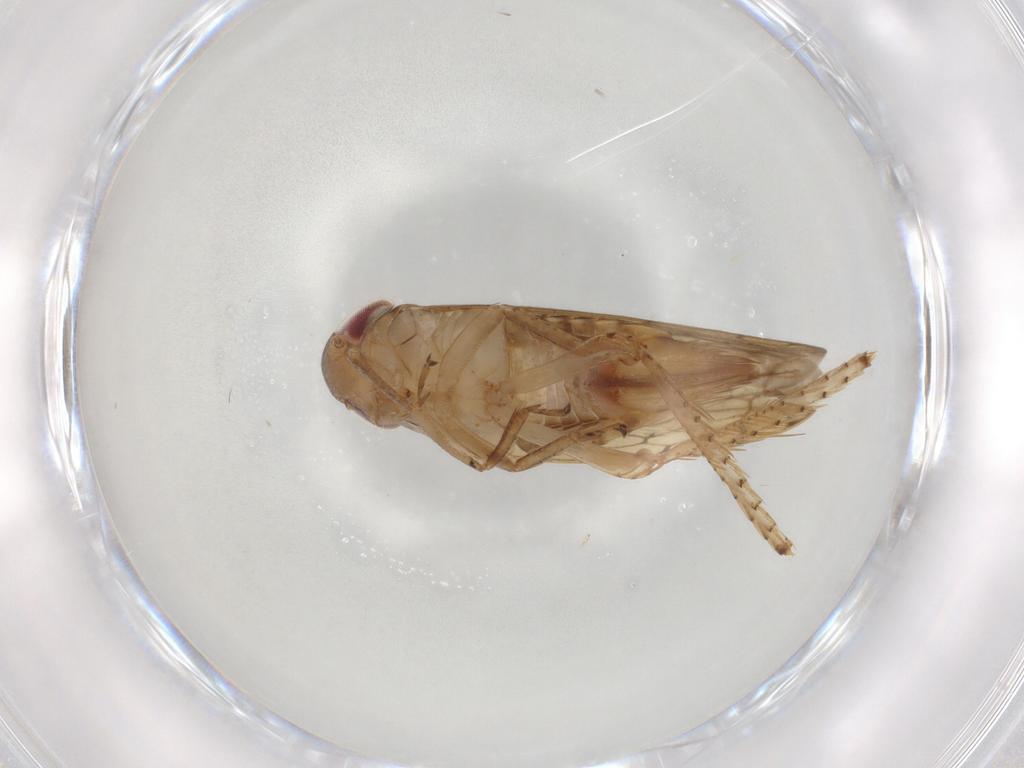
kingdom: Animalia
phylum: Arthropoda
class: Insecta
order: Hemiptera
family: Cicadellidae
